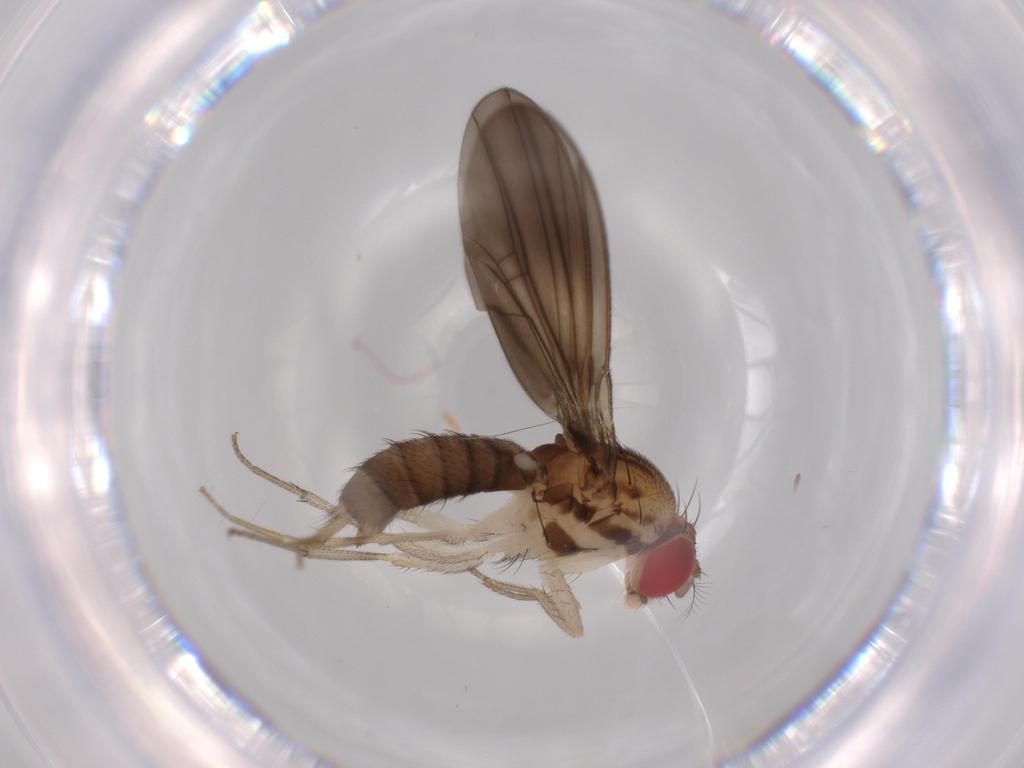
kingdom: Animalia
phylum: Arthropoda
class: Insecta
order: Diptera
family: Drosophilidae
